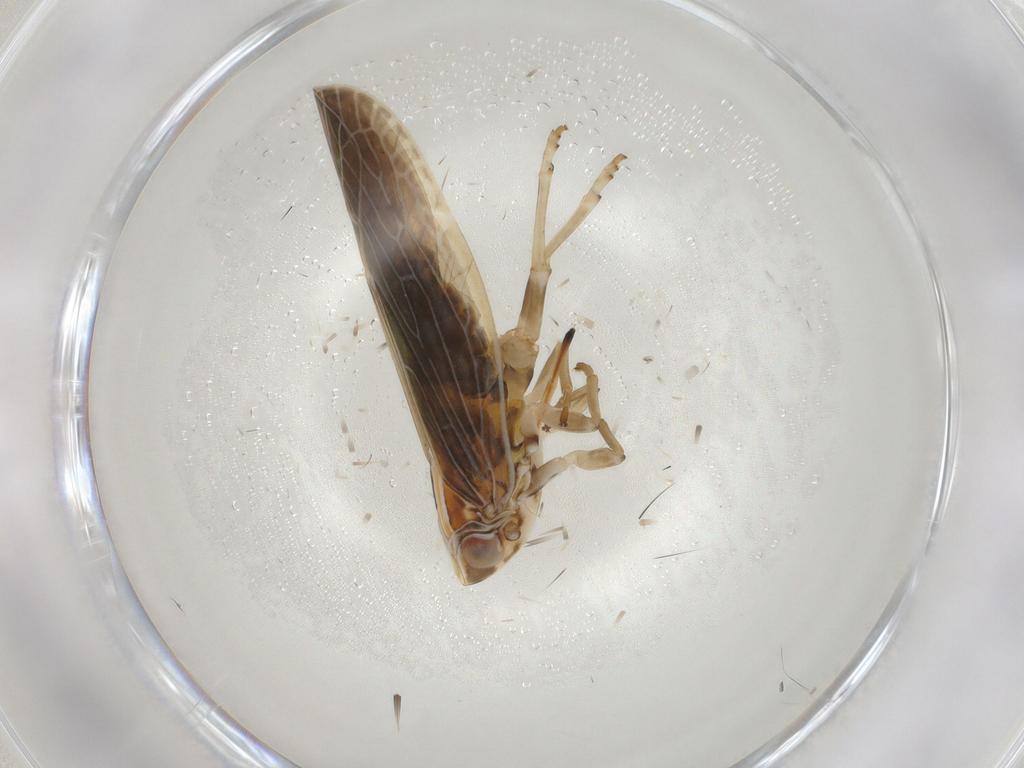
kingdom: Animalia
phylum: Arthropoda
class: Insecta
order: Hemiptera
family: Achilidae
